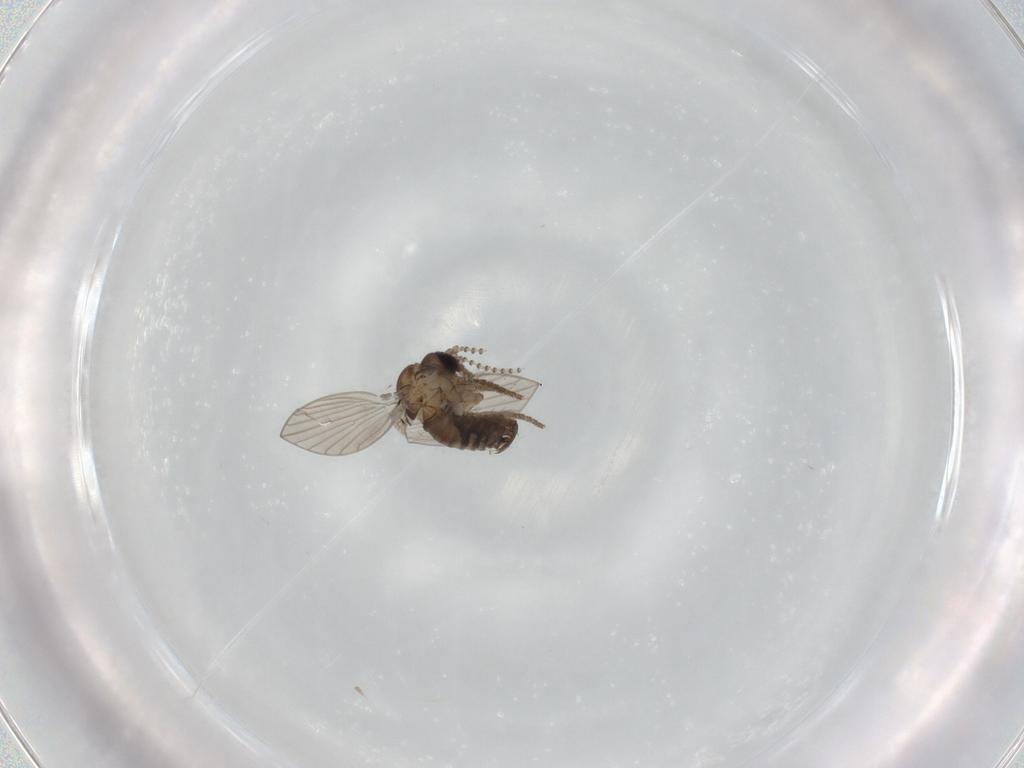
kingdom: Animalia
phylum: Arthropoda
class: Insecta
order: Diptera
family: Psychodidae
